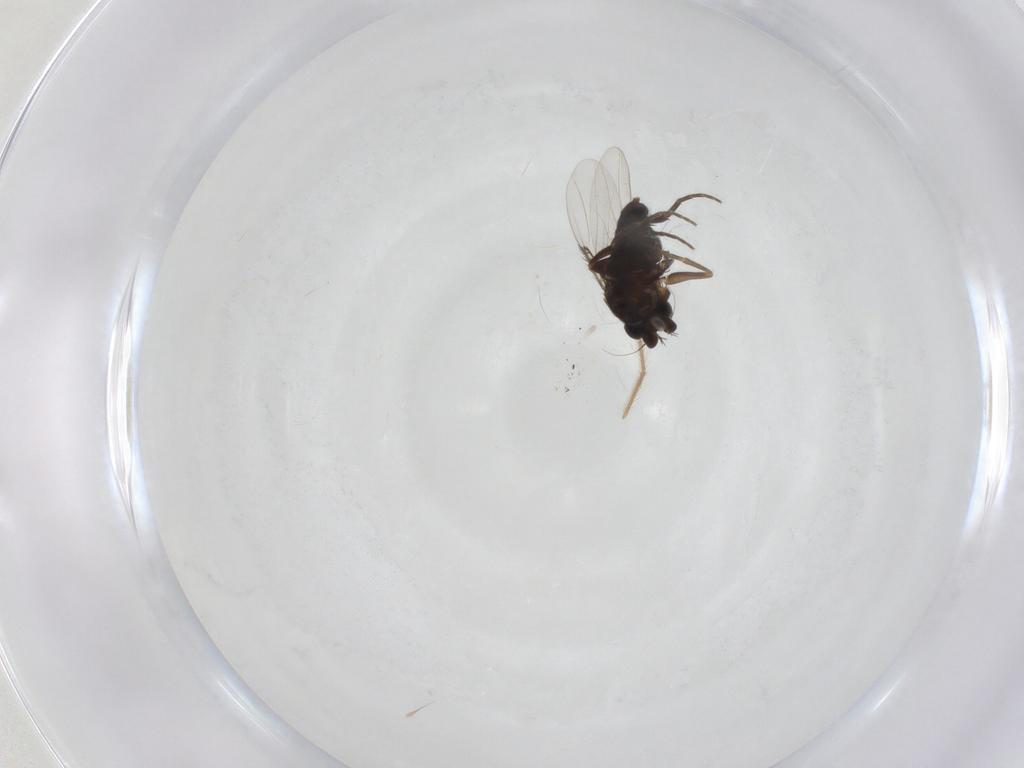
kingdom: Animalia
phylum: Arthropoda
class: Insecta
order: Diptera
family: Phoridae
